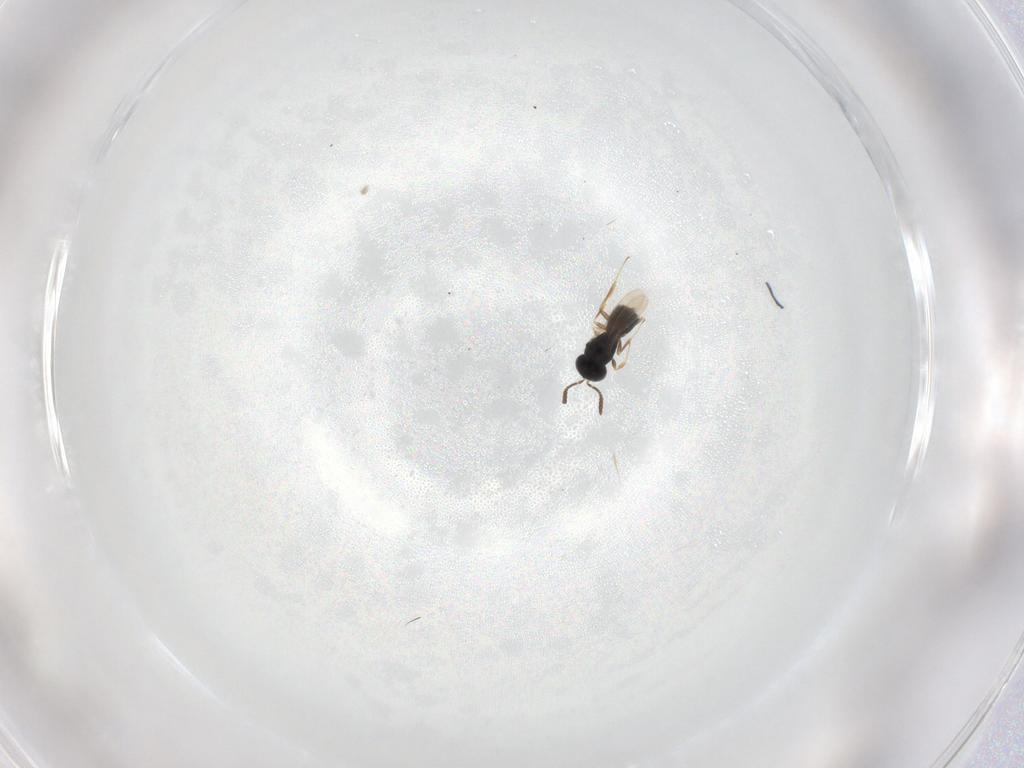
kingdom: Animalia
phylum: Arthropoda
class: Insecta
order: Hymenoptera
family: Scelionidae
